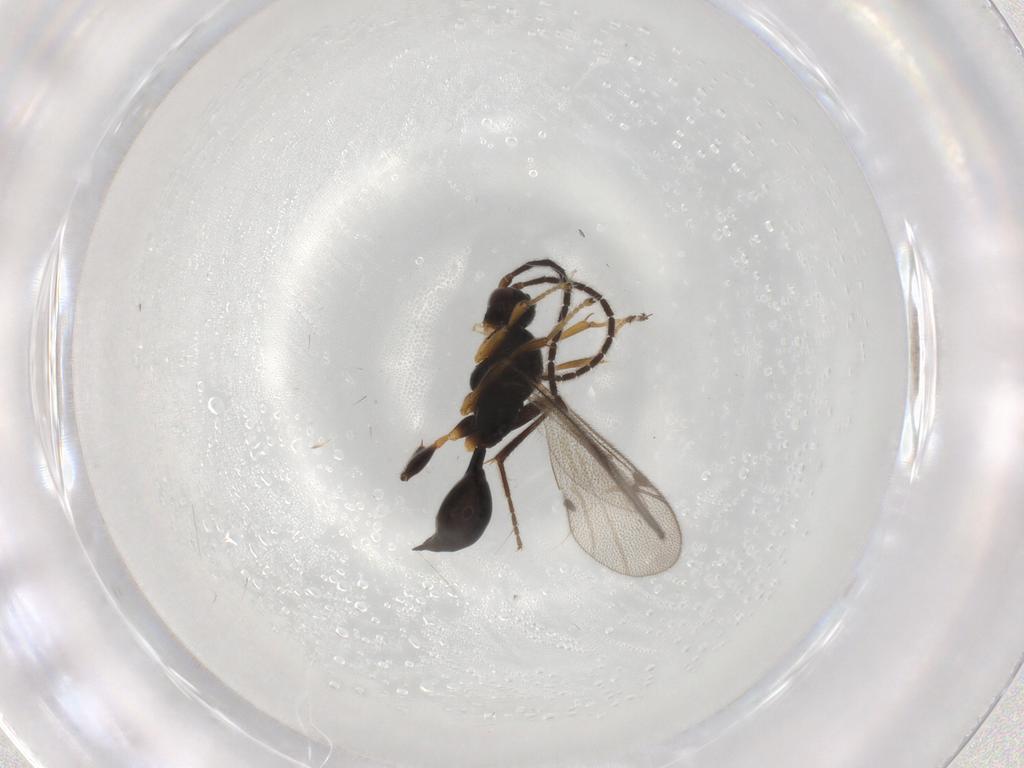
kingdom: Animalia
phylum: Arthropoda
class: Insecta
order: Hymenoptera
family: Proctotrupidae
